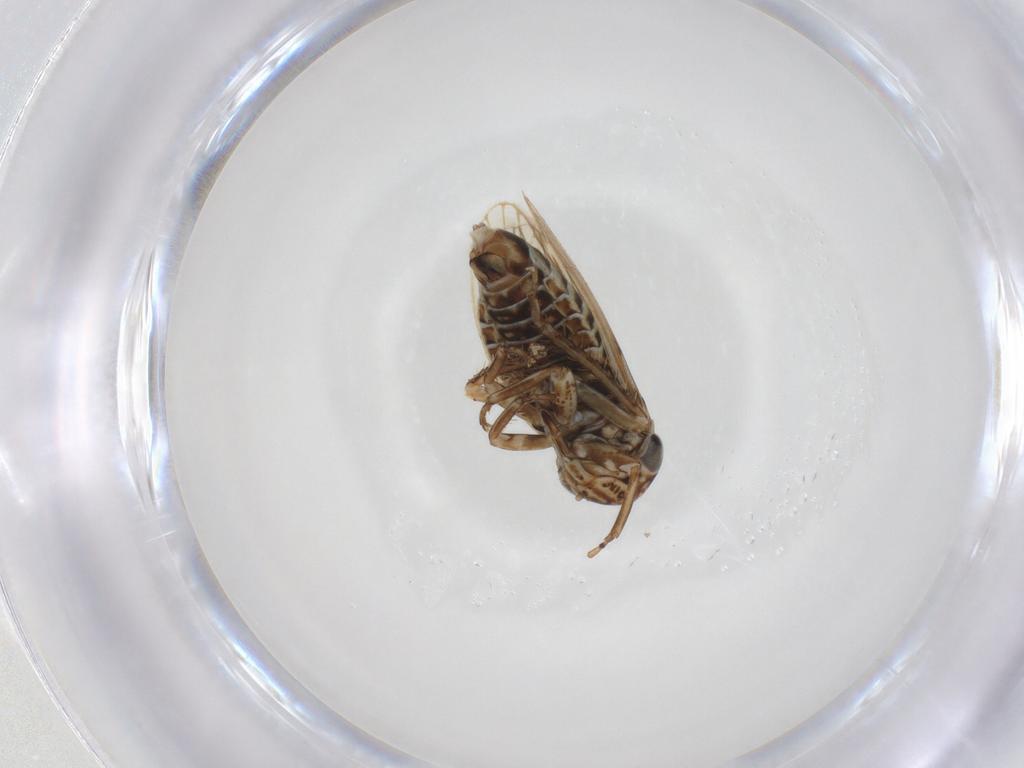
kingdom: Animalia
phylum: Arthropoda
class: Insecta
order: Hemiptera
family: Cicadellidae
